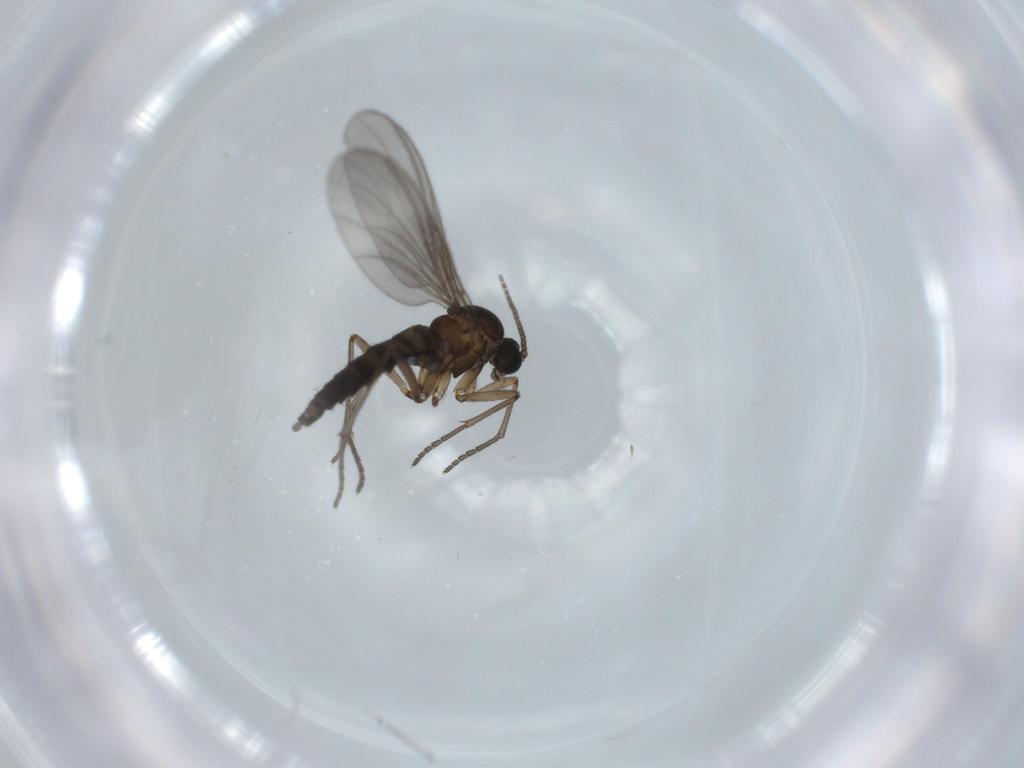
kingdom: Animalia
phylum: Arthropoda
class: Insecta
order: Diptera
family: Sciaridae
